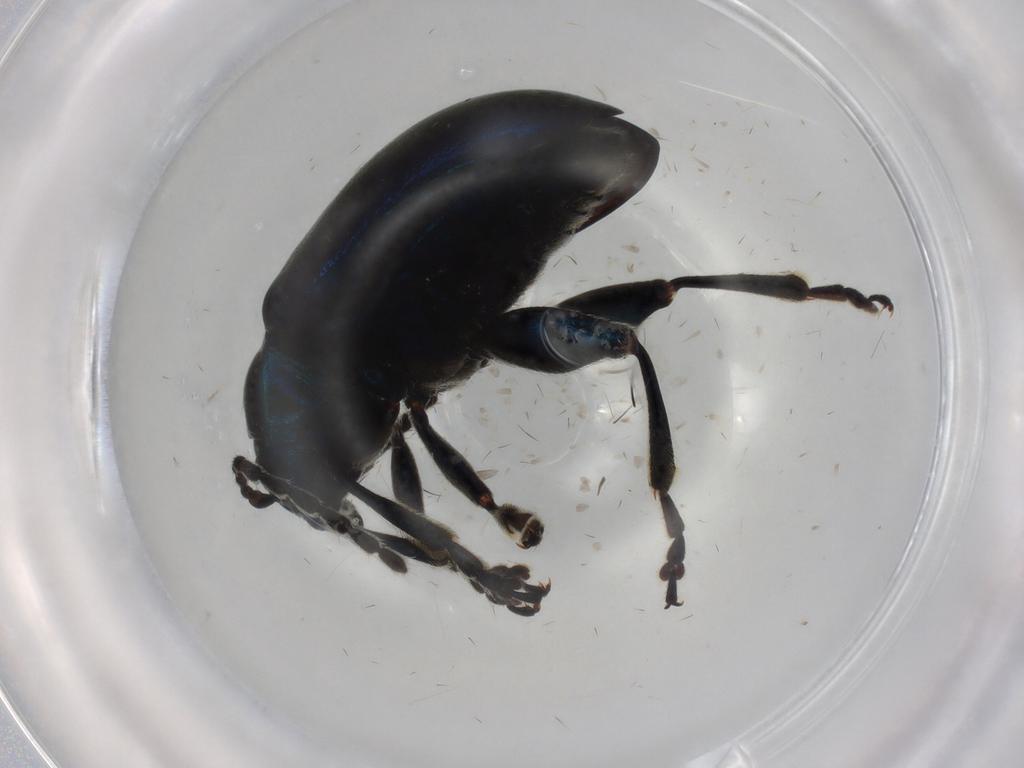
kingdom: Animalia
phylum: Arthropoda
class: Insecta
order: Coleoptera
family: Chrysomelidae
